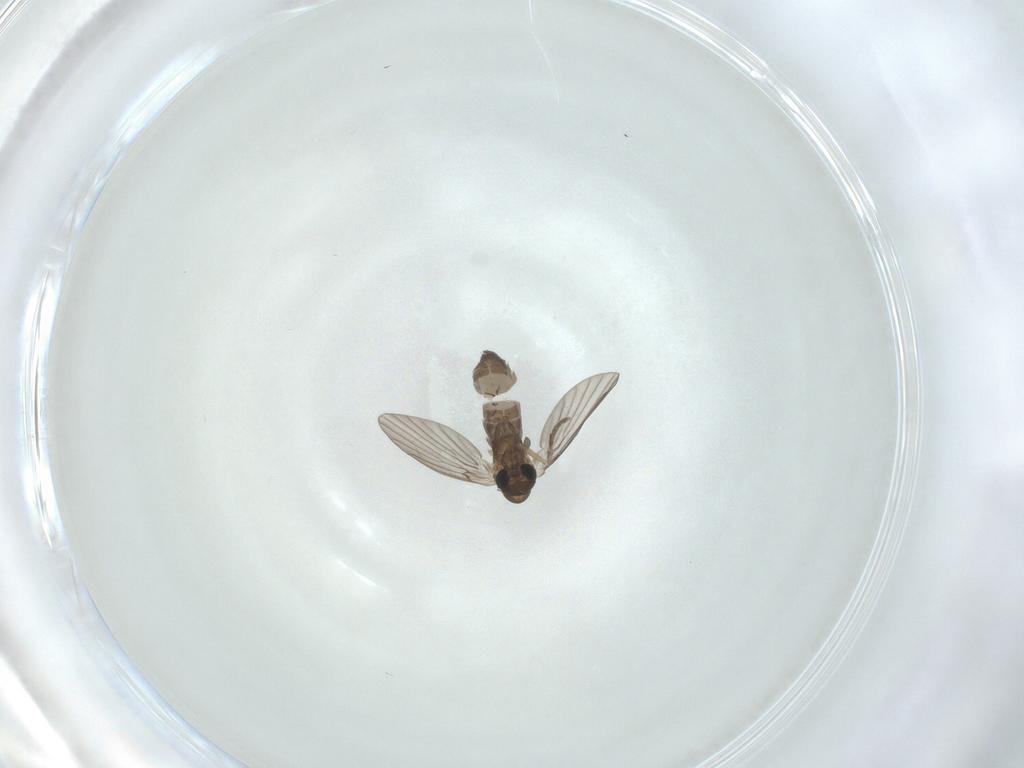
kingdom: Animalia
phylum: Arthropoda
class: Insecta
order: Diptera
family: Cecidomyiidae
